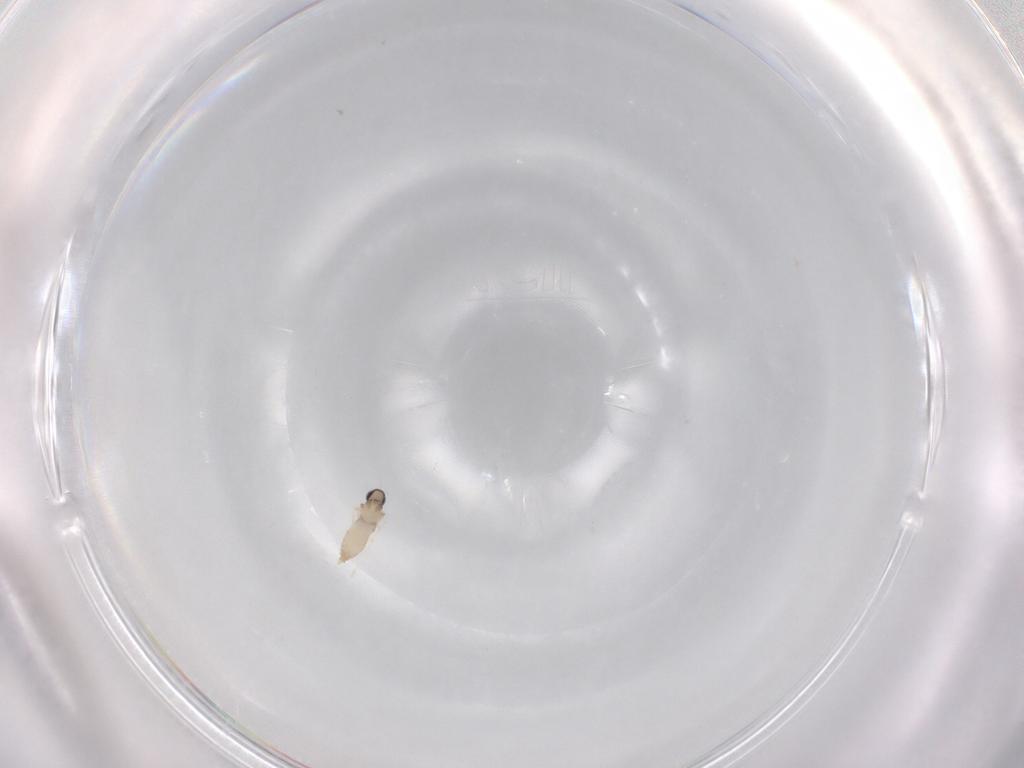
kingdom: Animalia
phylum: Arthropoda
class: Insecta
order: Diptera
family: Cecidomyiidae
